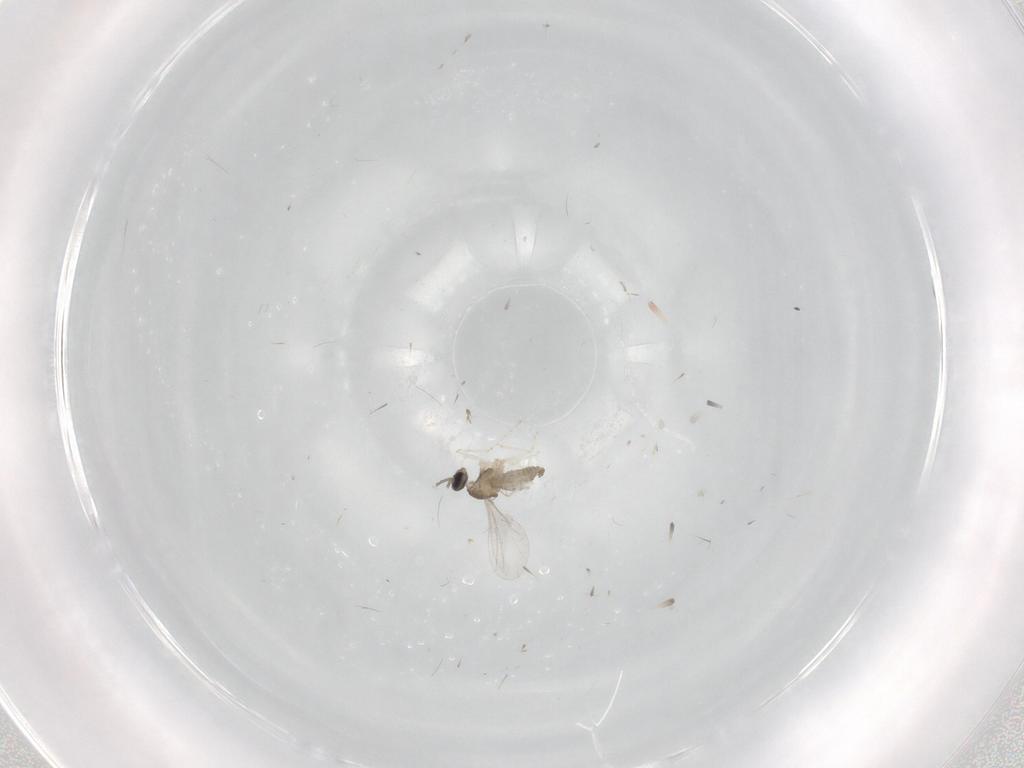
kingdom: Animalia
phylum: Arthropoda
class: Insecta
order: Diptera
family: Cecidomyiidae
